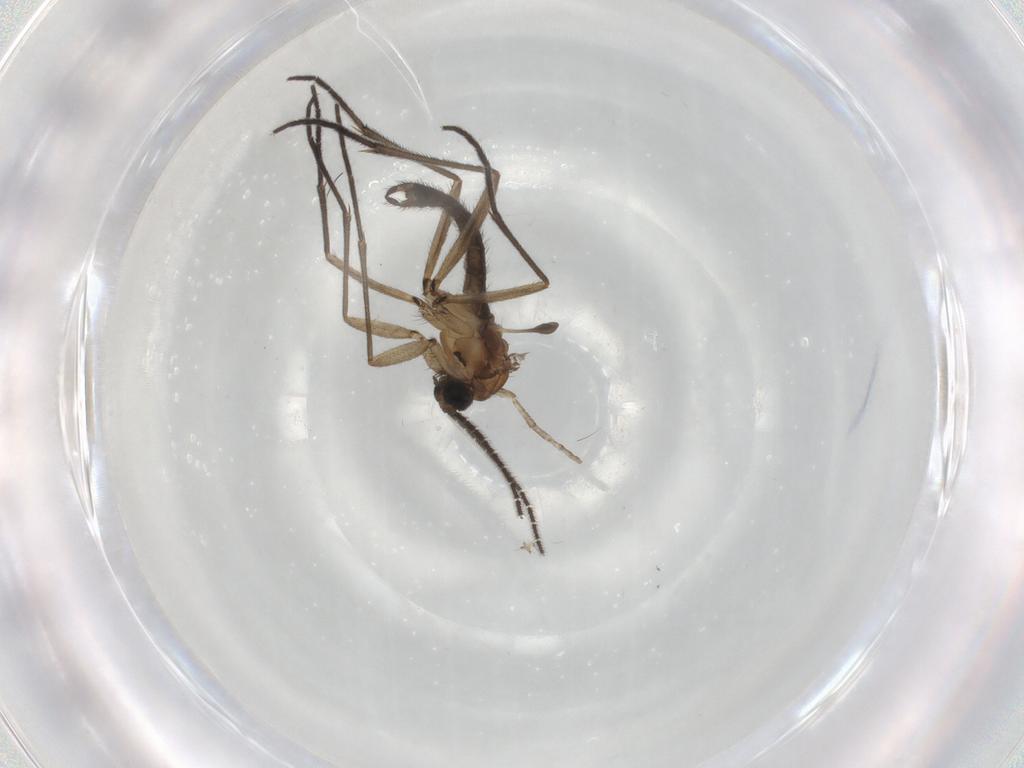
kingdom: Animalia
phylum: Arthropoda
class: Insecta
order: Diptera
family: Sciaridae
